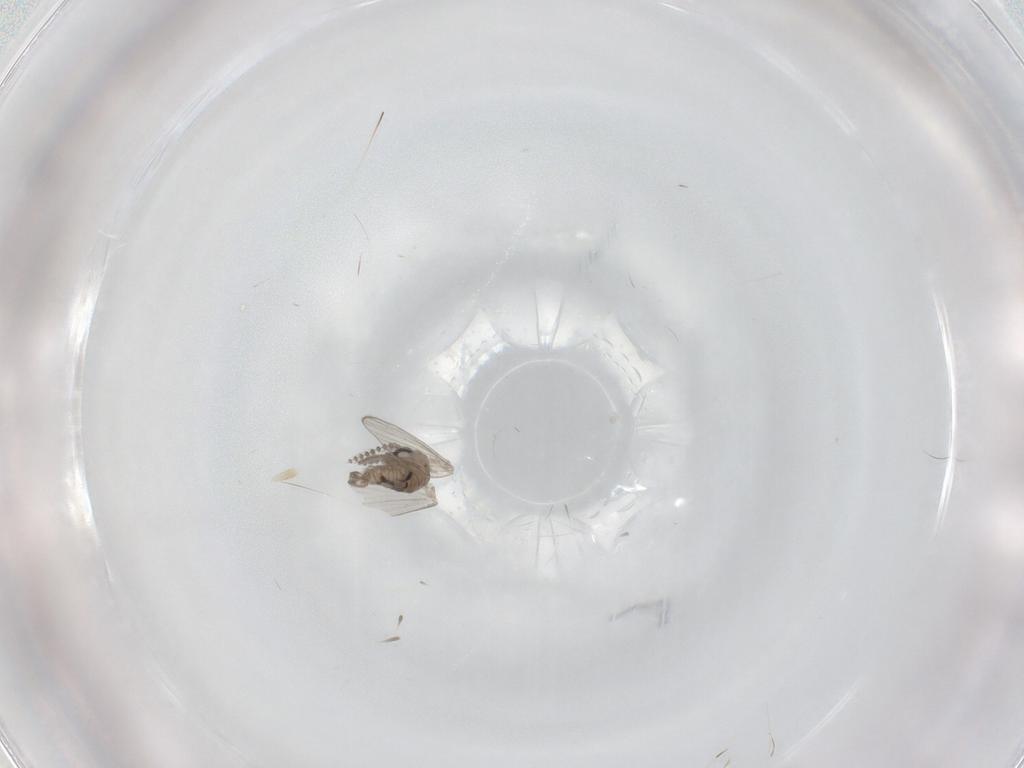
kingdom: Animalia
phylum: Arthropoda
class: Insecta
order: Diptera
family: Psychodidae
